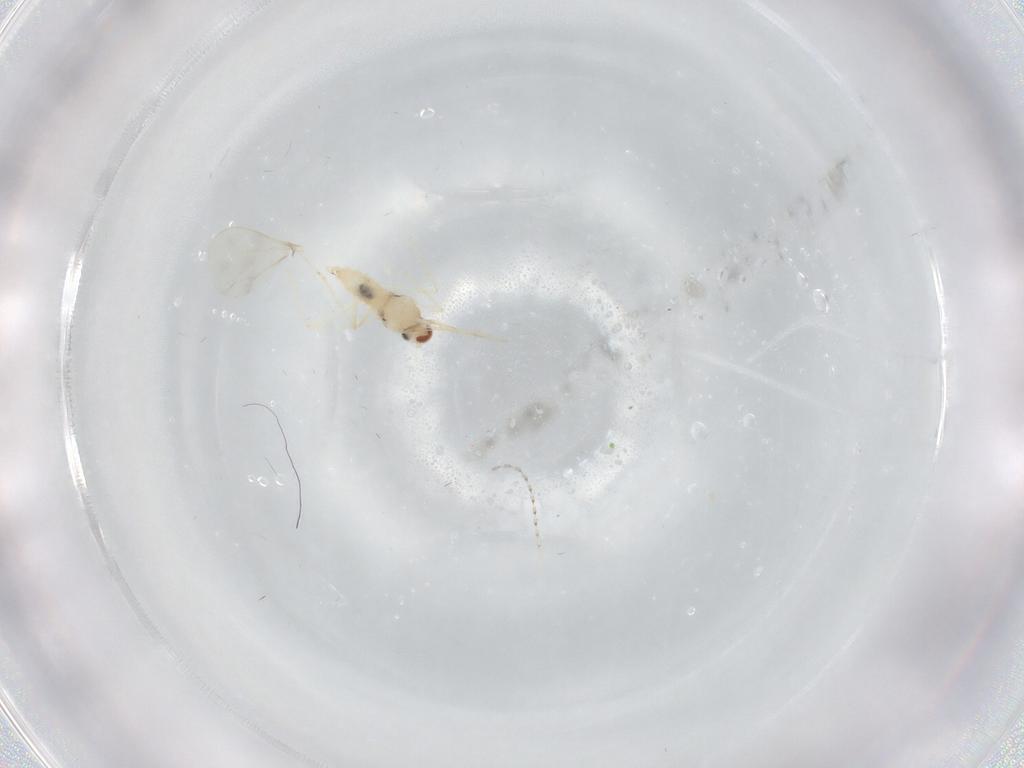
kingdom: Animalia
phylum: Arthropoda
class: Insecta
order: Diptera
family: Cecidomyiidae
